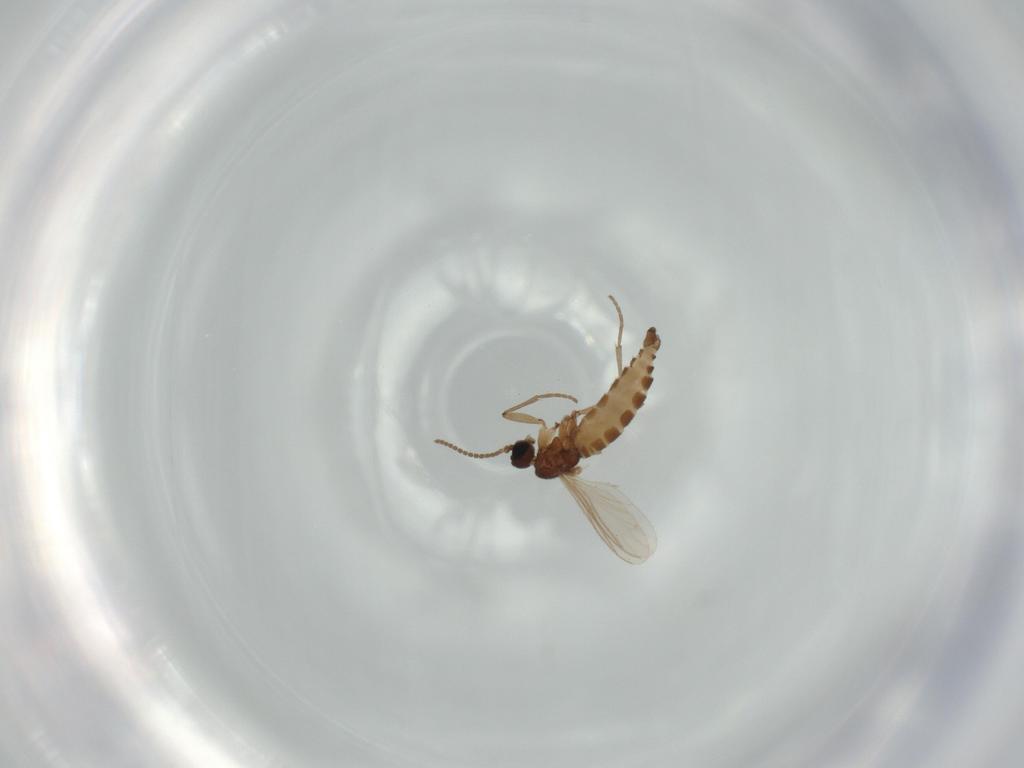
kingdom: Animalia
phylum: Arthropoda
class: Insecta
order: Diptera
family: Sciaridae
